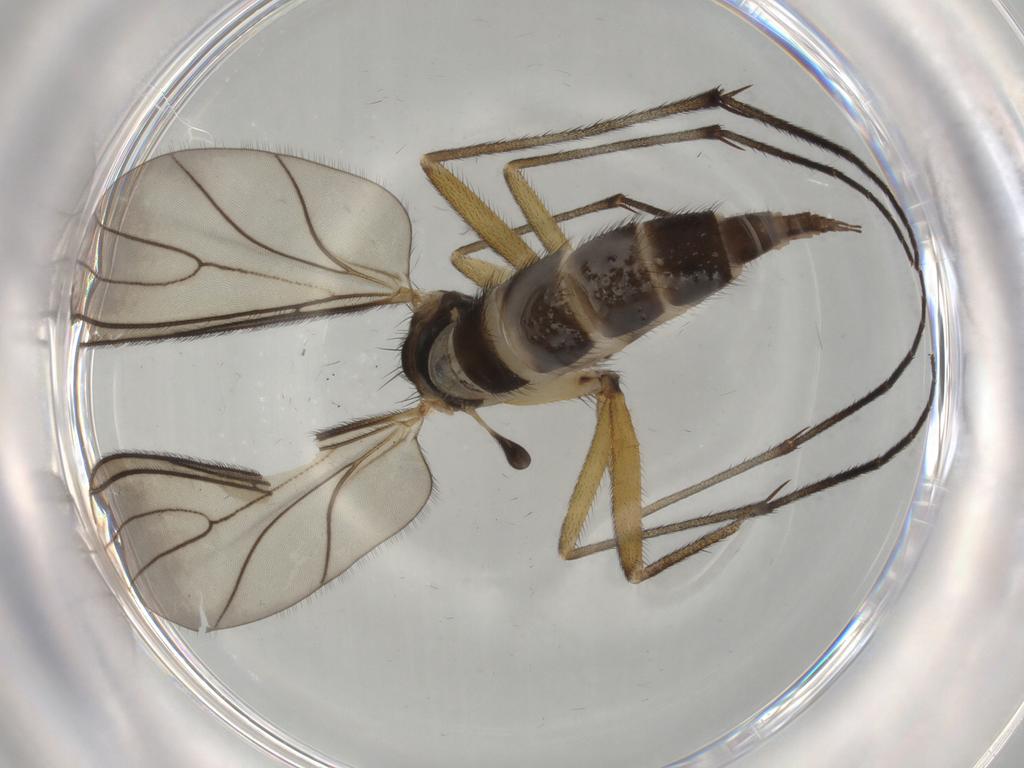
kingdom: Animalia
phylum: Arthropoda
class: Insecta
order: Diptera
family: Sciaridae
